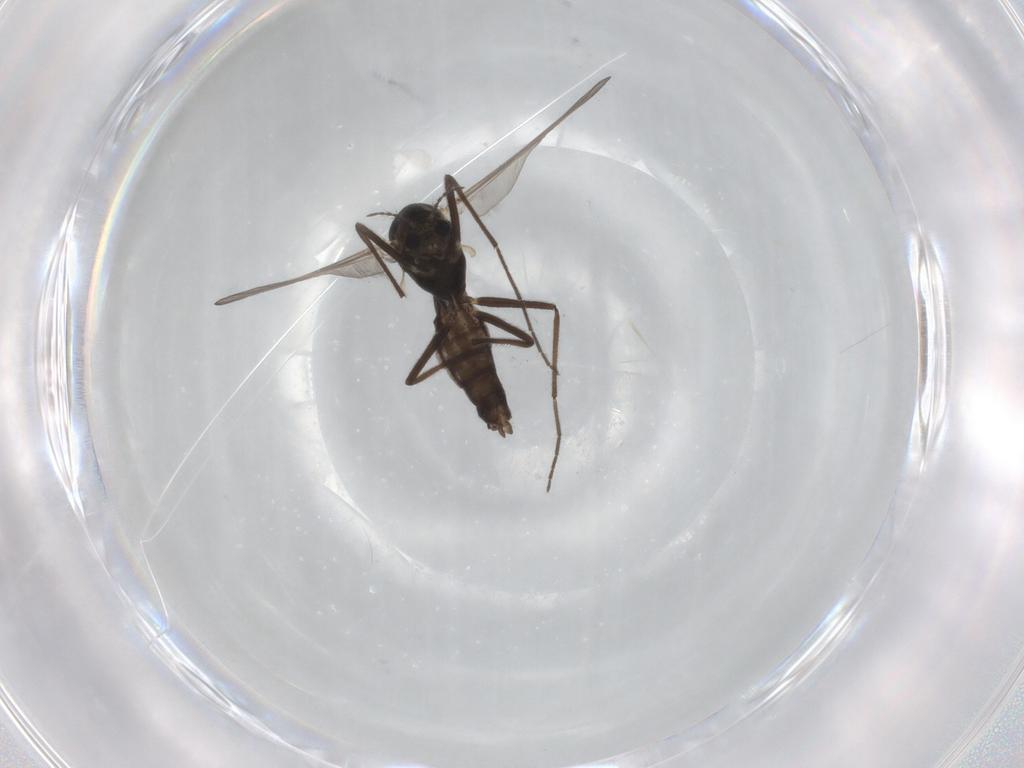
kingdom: Animalia
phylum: Arthropoda
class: Insecta
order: Diptera
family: Chironomidae
